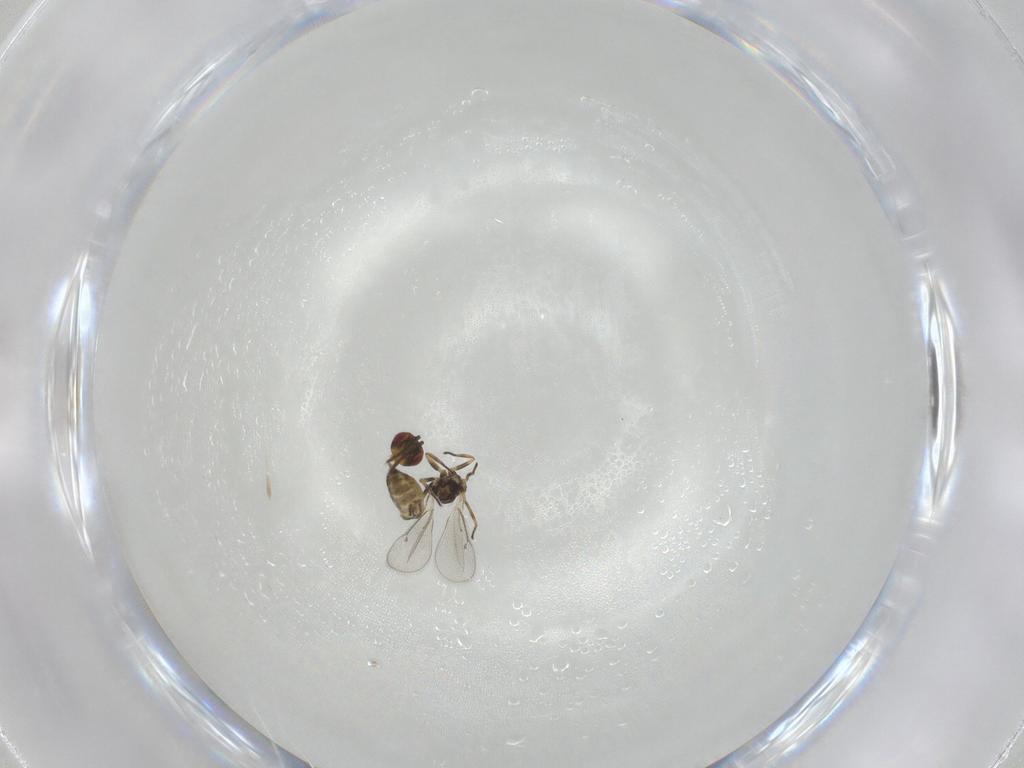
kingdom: Animalia
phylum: Arthropoda
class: Insecta
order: Hymenoptera
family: Eulophidae
